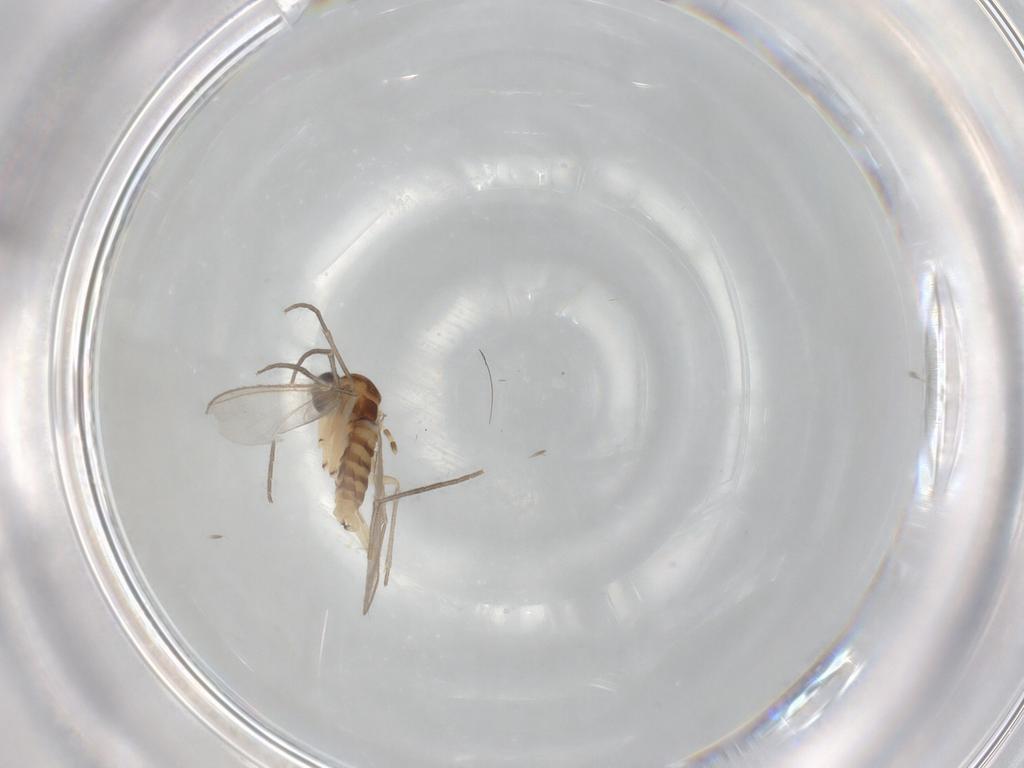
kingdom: Animalia
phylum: Arthropoda
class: Insecta
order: Diptera
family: Sciaridae
